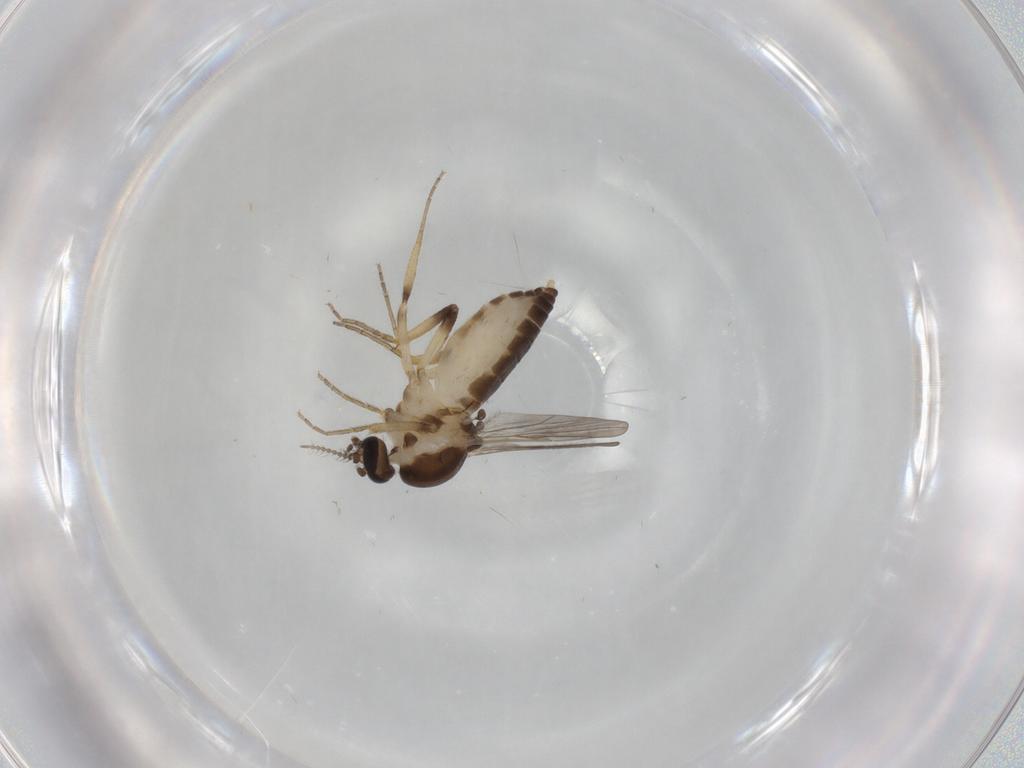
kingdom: Animalia
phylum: Arthropoda
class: Insecta
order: Diptera
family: Ceratopogonidae
